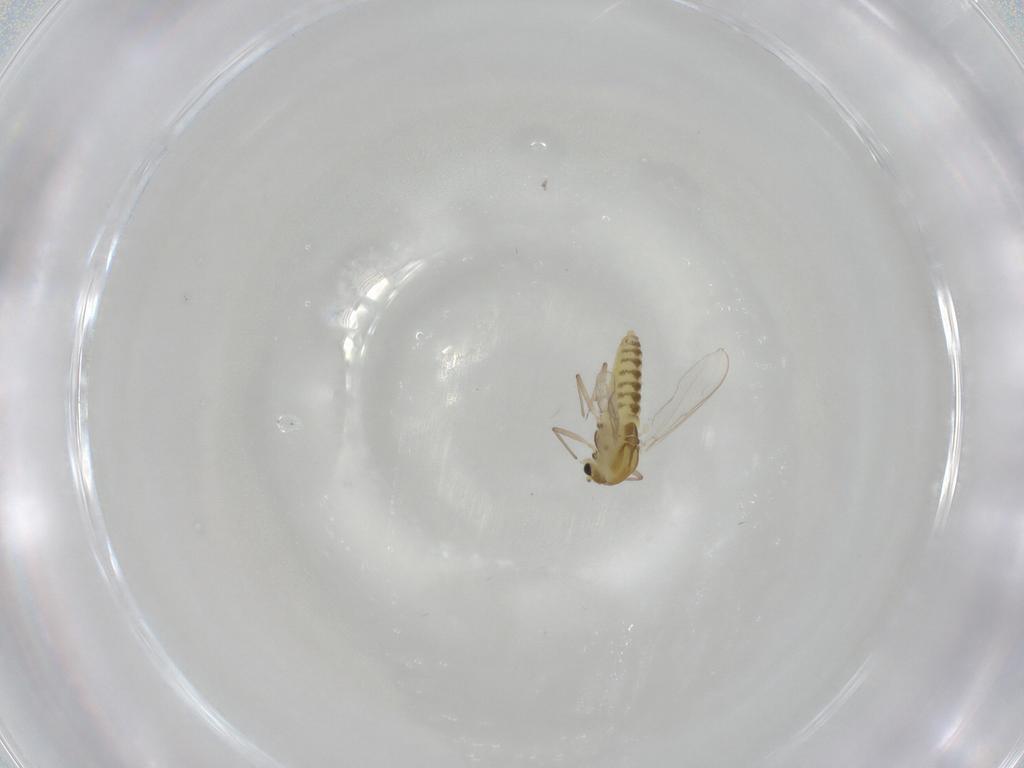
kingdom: Animalia
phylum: Arthropoda
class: Insecta
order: Diptera
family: Chironomidae
